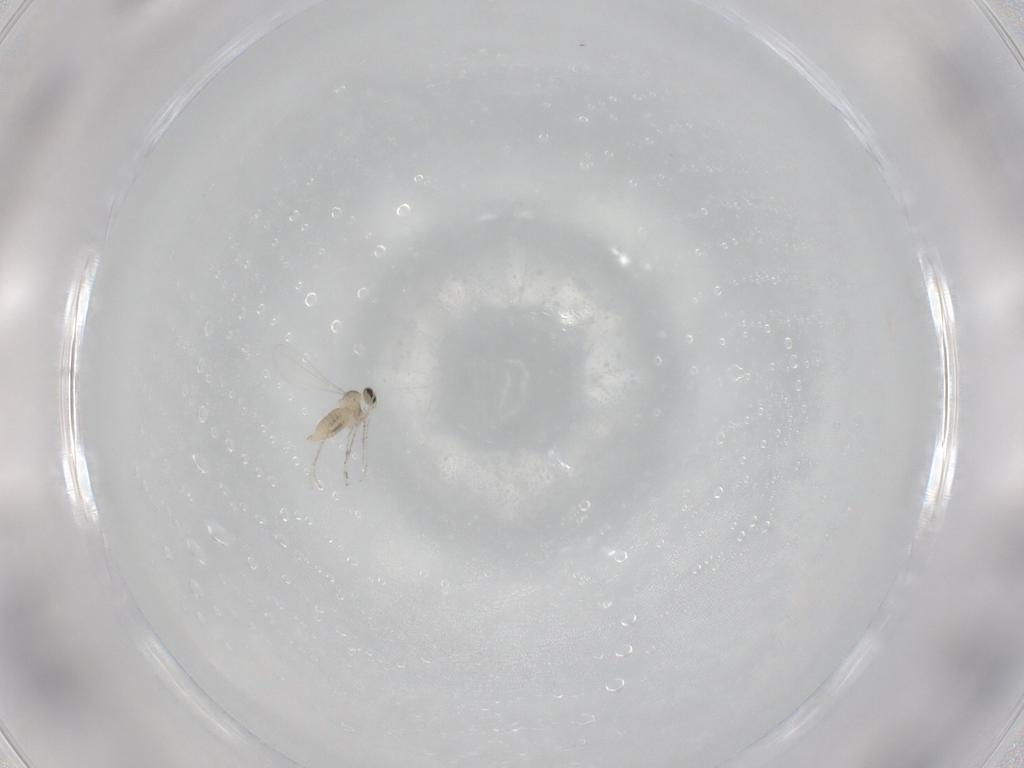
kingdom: Animalia
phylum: Arthropoda
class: Insecta
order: Diptera
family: Cecidomyiidae
